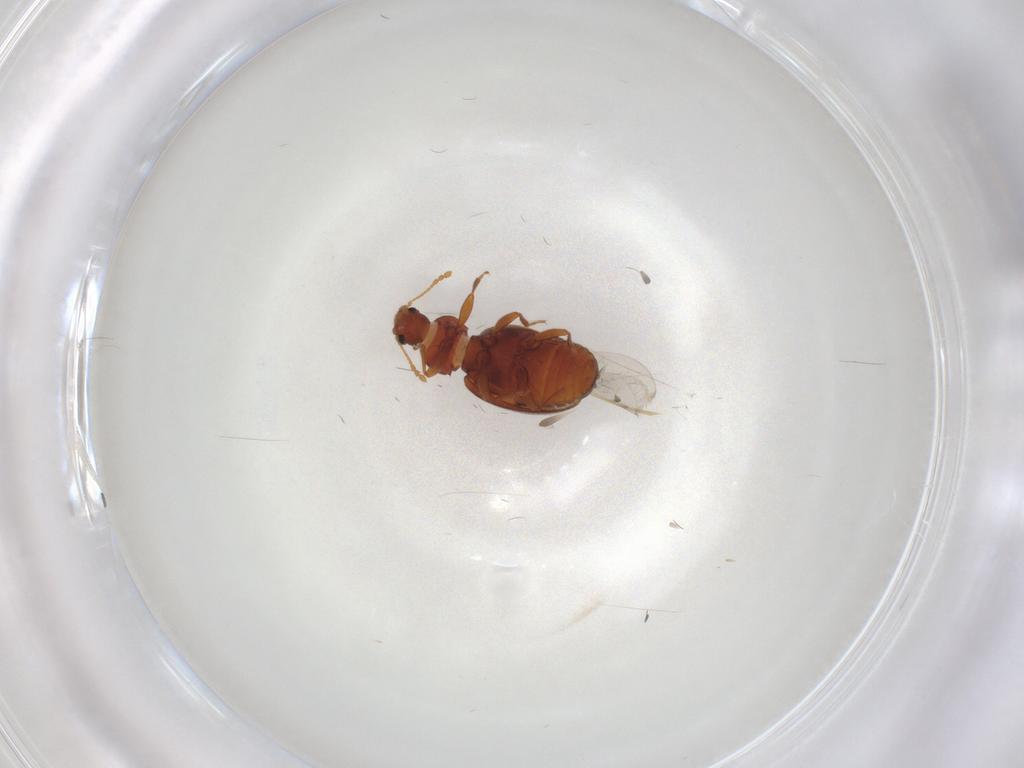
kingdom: Animalia
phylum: Arthropoda
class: Insecta
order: Coleoptera
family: Latridiidae
